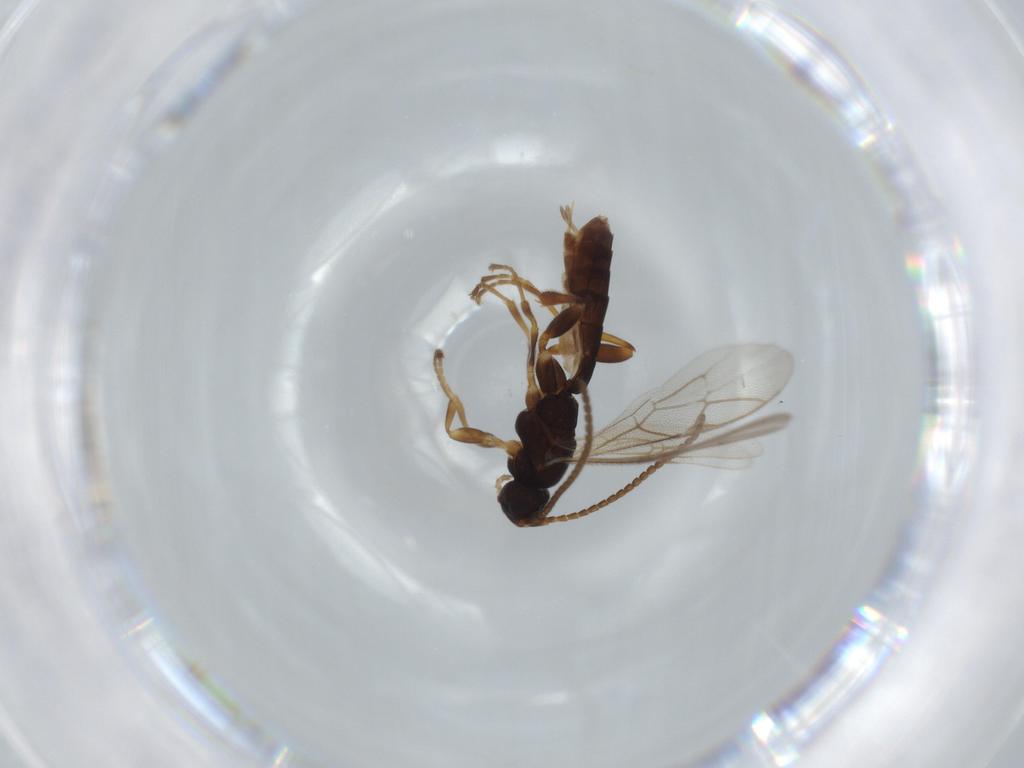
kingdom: Animalia
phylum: Arthropoda
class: Insecta
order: Hymenoptera
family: Ichneumonidae
